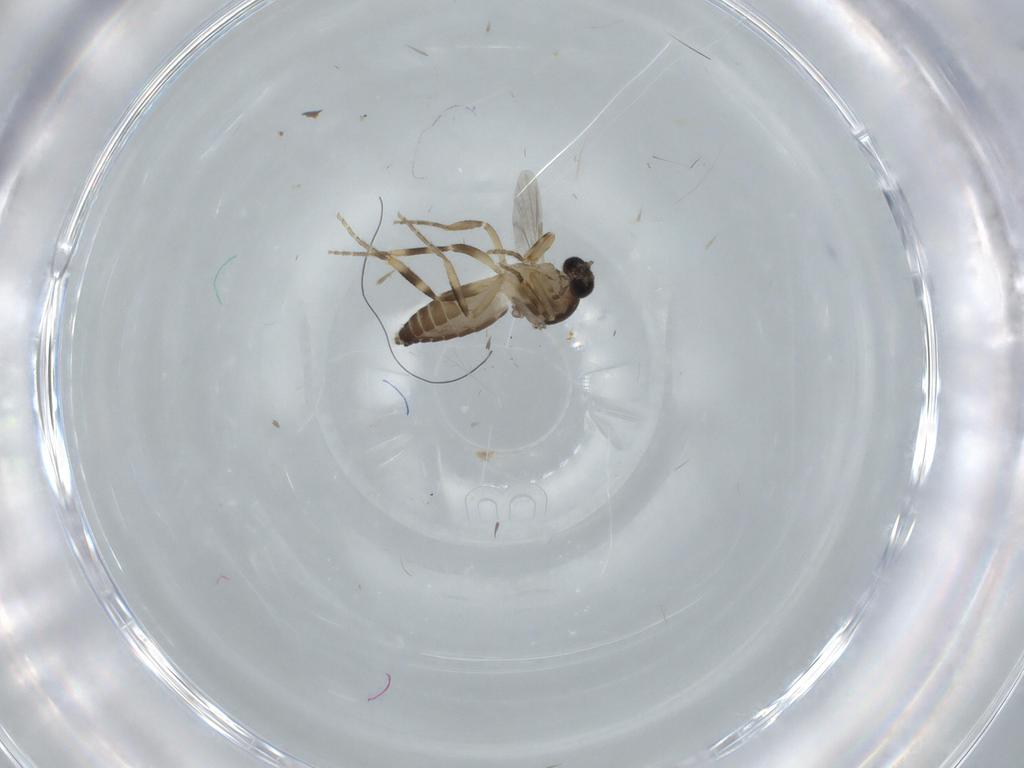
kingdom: Animalia
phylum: Arthropoda
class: Insecta
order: Diptera
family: Ceratopogonidae
